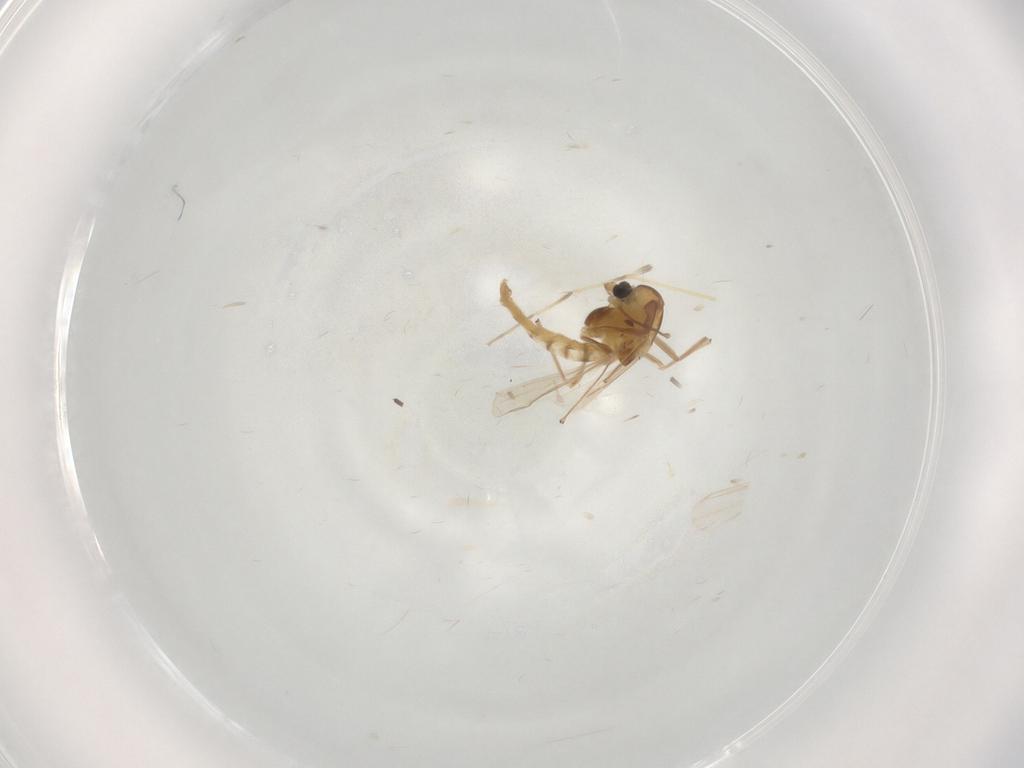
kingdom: Animalia
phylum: Arthropoda
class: Insecta
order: Diptera
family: Chironomidae
